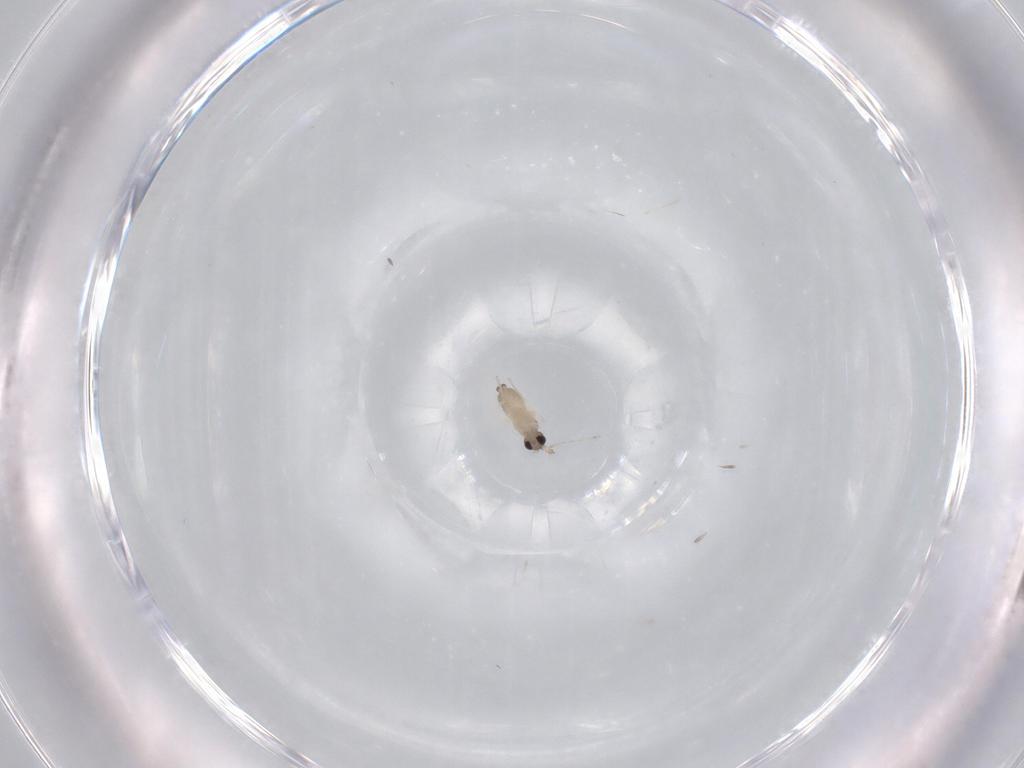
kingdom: Animalia
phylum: Arthropoda
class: Insecta
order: Diptera
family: Cecidomyiidae
